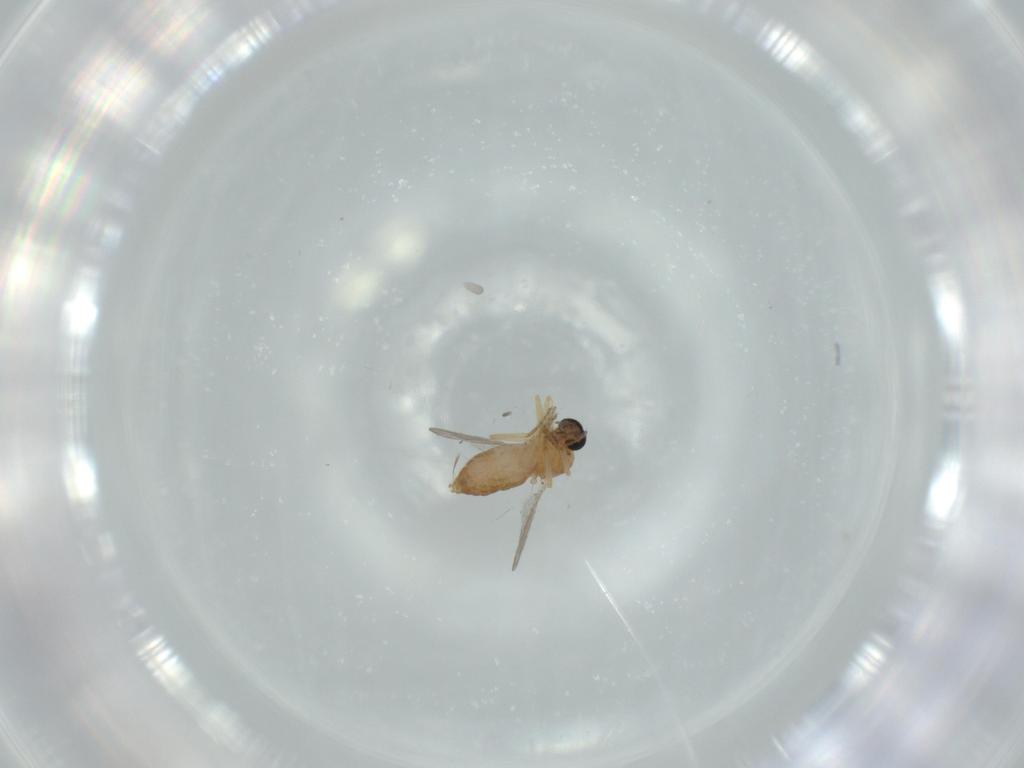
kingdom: Animalia
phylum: Arthropoda
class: Insecta
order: Diptera
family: Ceratopogonidae
